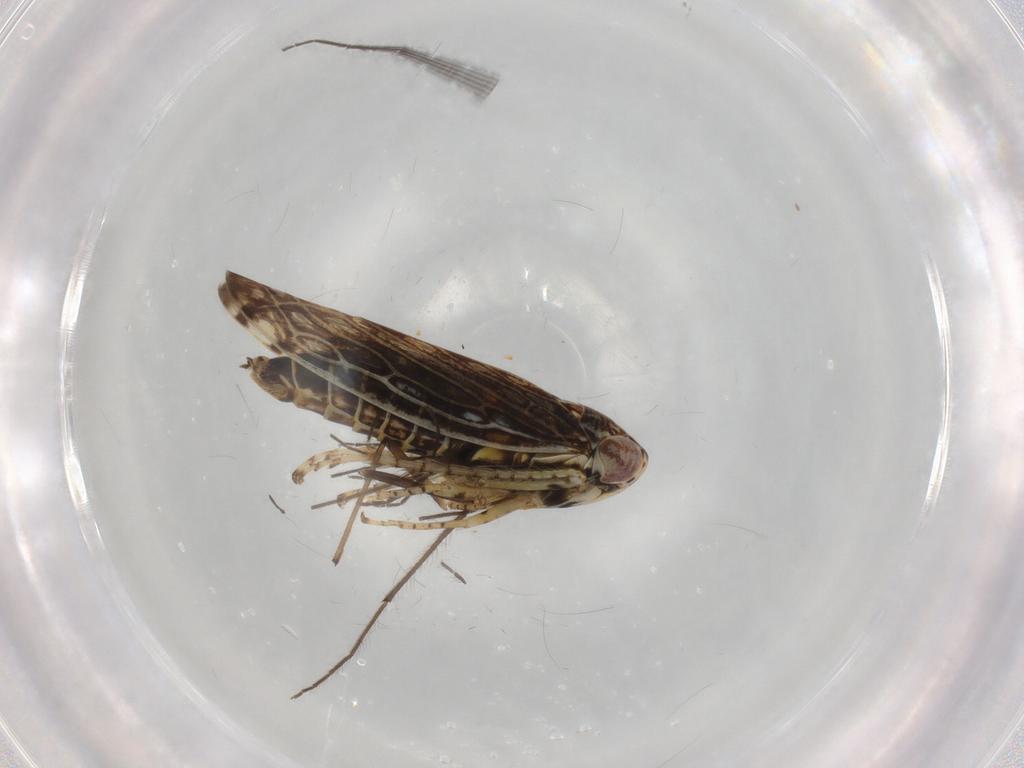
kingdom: Animalia
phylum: Arthropoda
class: Insecta
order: Hemiptera
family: Cicadellidae
